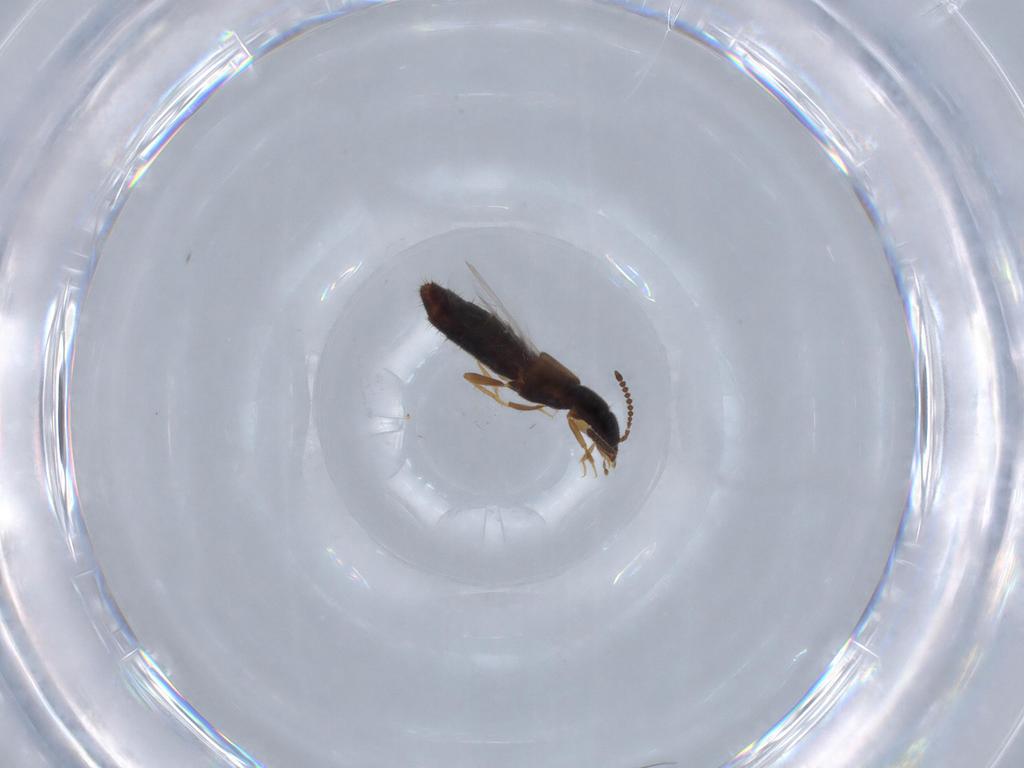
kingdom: Animalia
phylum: Arthropoda
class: Insecta
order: Coleoptera
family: Staphylinidae
